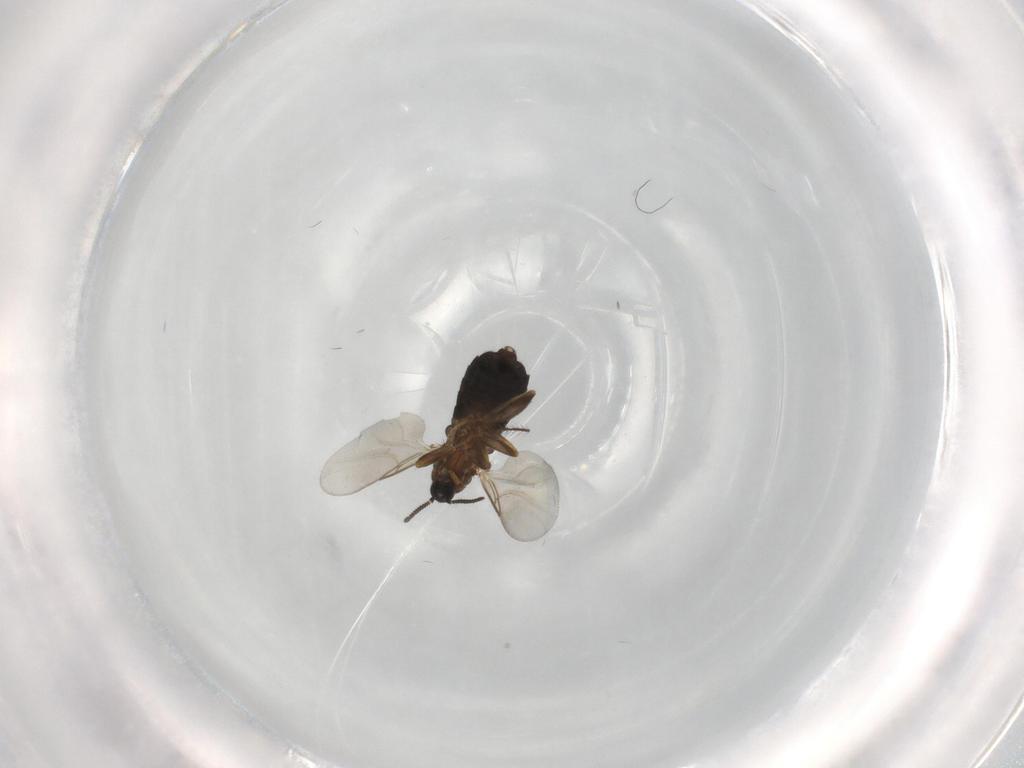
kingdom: Animalia
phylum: Arthropoda
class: Insecta
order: Diptera
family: Scatopsidae
